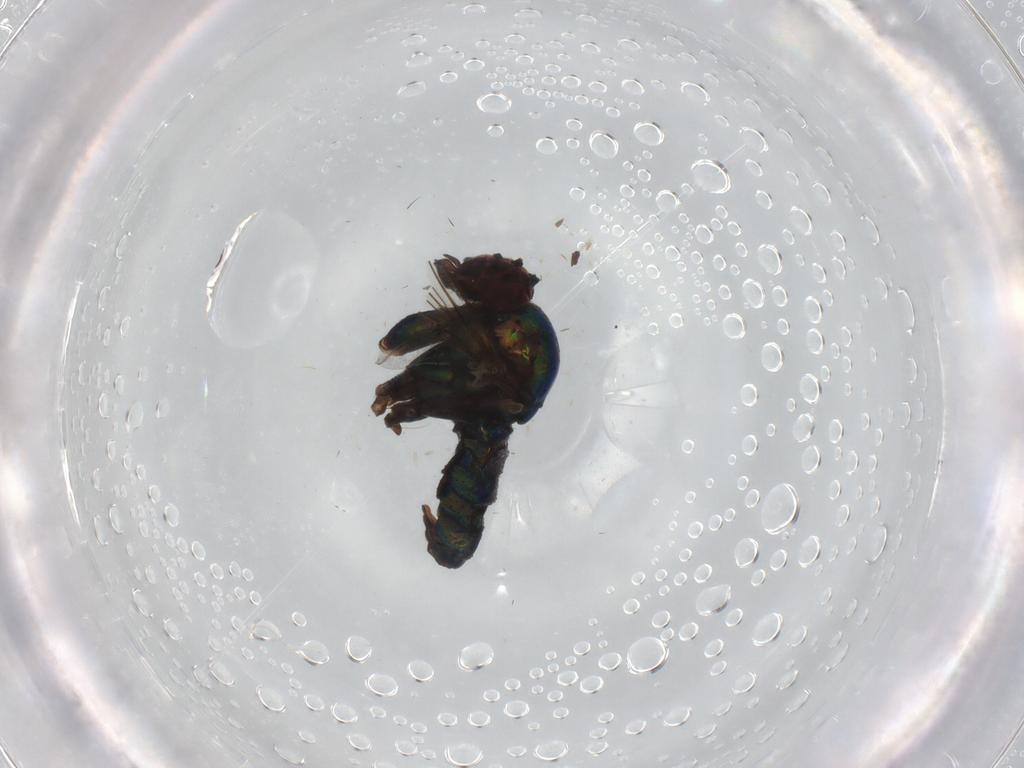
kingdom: Animalia
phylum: Arthropoda
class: Insecta
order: Diptera
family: Dolichopodidae
